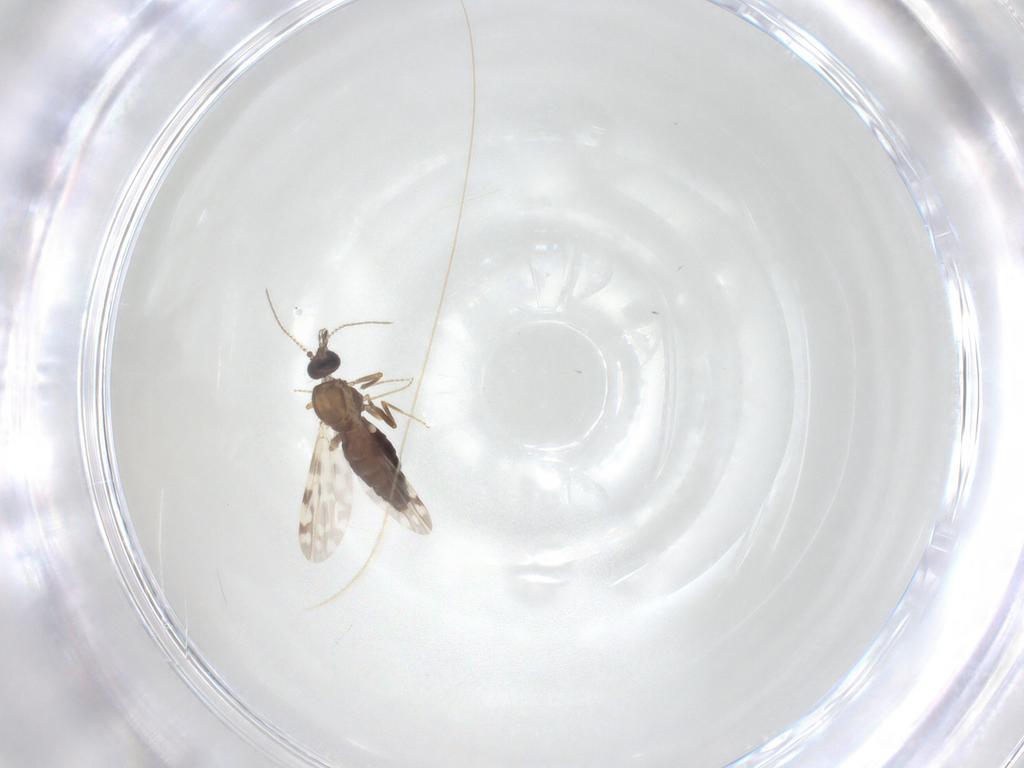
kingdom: Animalia
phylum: Arthropoda
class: Insecta
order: Diptera
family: Ceratopogonidae
